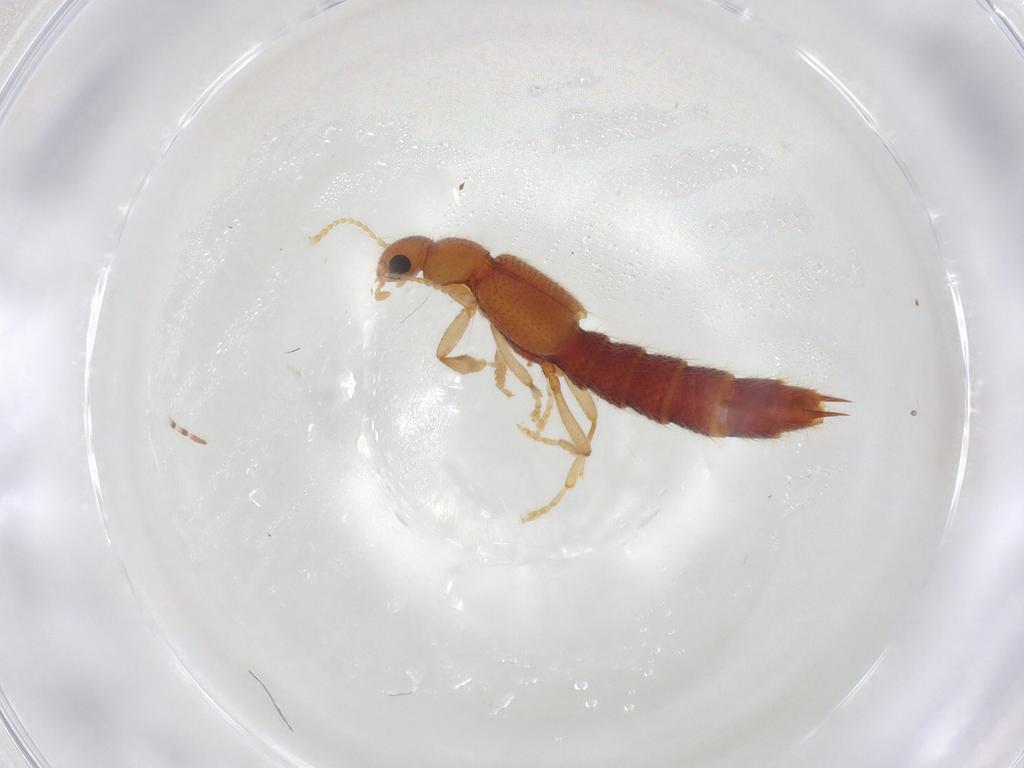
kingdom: Animalia
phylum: Arthropoda
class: Insecta
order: Coleoptera
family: Staphylinidae
